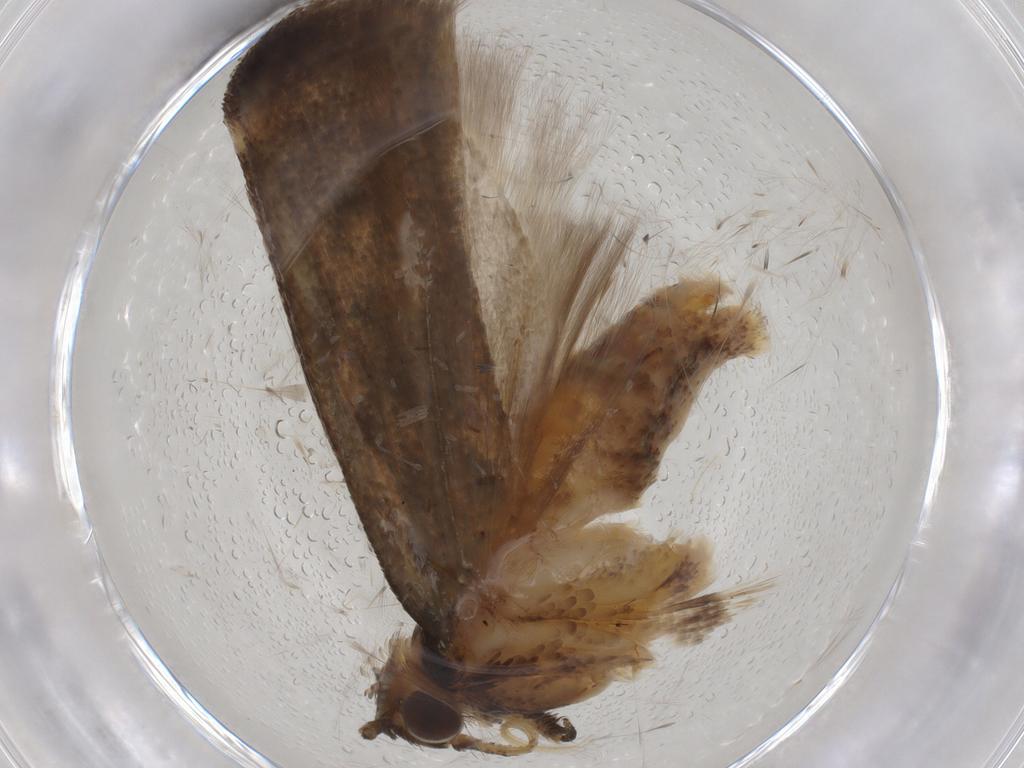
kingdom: Animalia
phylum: Arthropoda
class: Insecta
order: Lepidoptera
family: Gelechiidae
